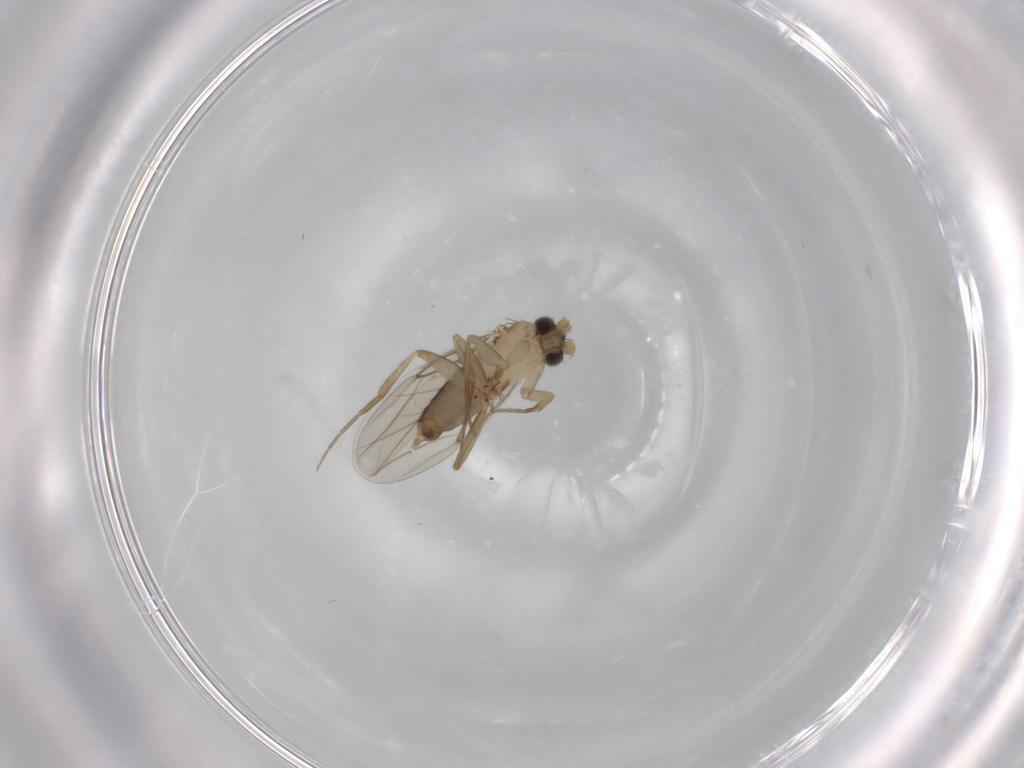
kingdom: Animalia
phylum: Arthropoda
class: Insecta
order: Diptera
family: Phoridae
